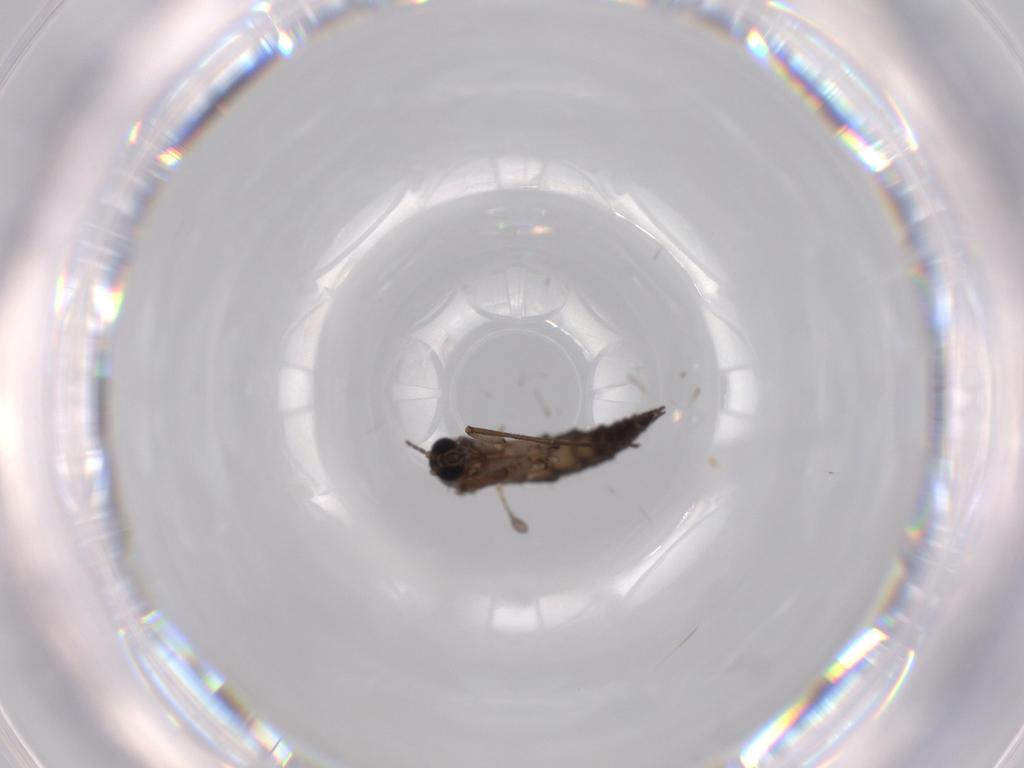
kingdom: Animalia
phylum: Arthropoda
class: Insecta
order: Diptera
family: Sciaridae
